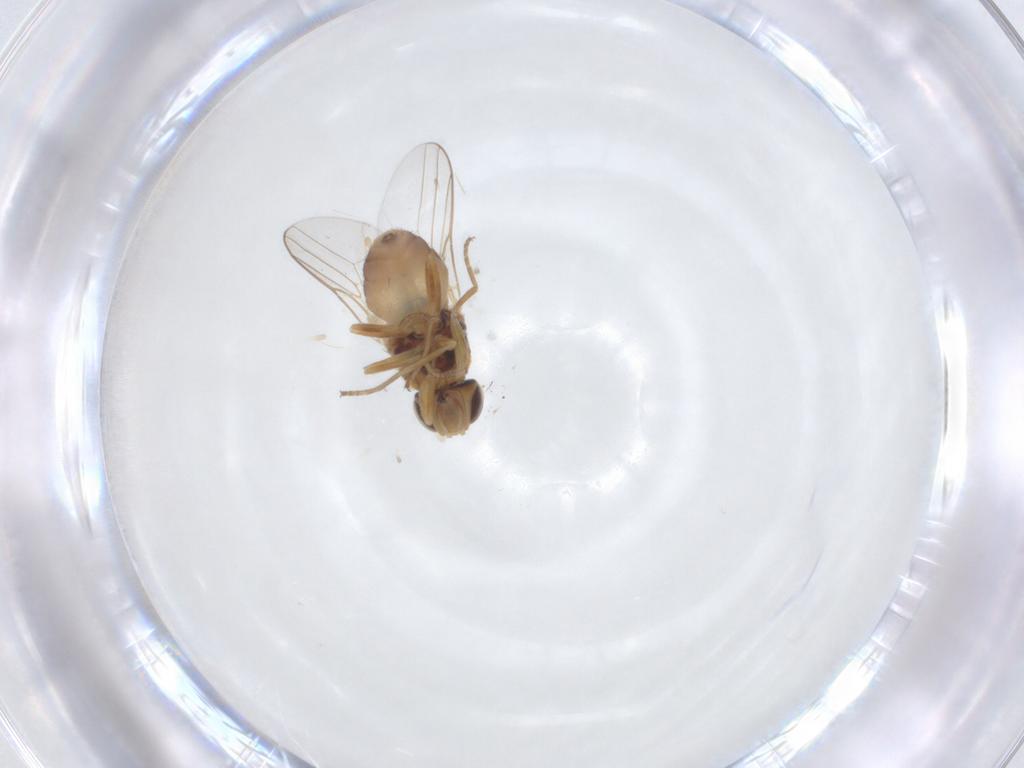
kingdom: Animalia
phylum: Arthropoda
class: Insecta
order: Diptera
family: Chloropidae
